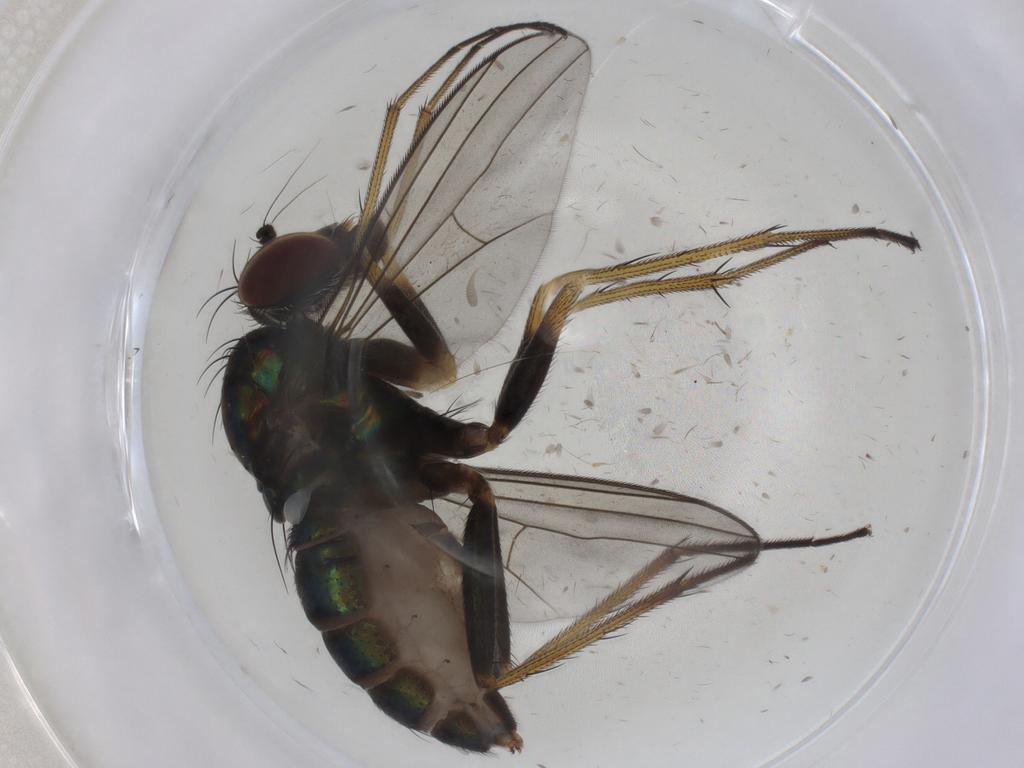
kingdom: Animalia
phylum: Arthropoda
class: Insecta
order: Diptera
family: Dolichopodidae
